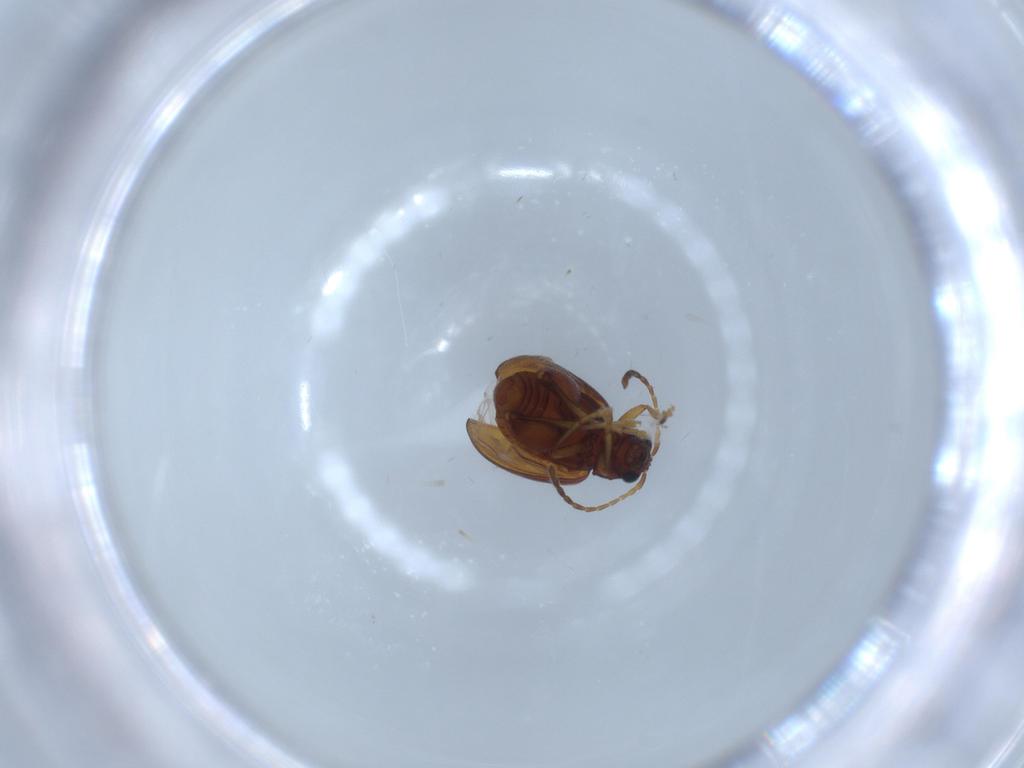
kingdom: Animalia
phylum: Arthropoda
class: Insecta
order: Coleoptera
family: Chrysomelidae
